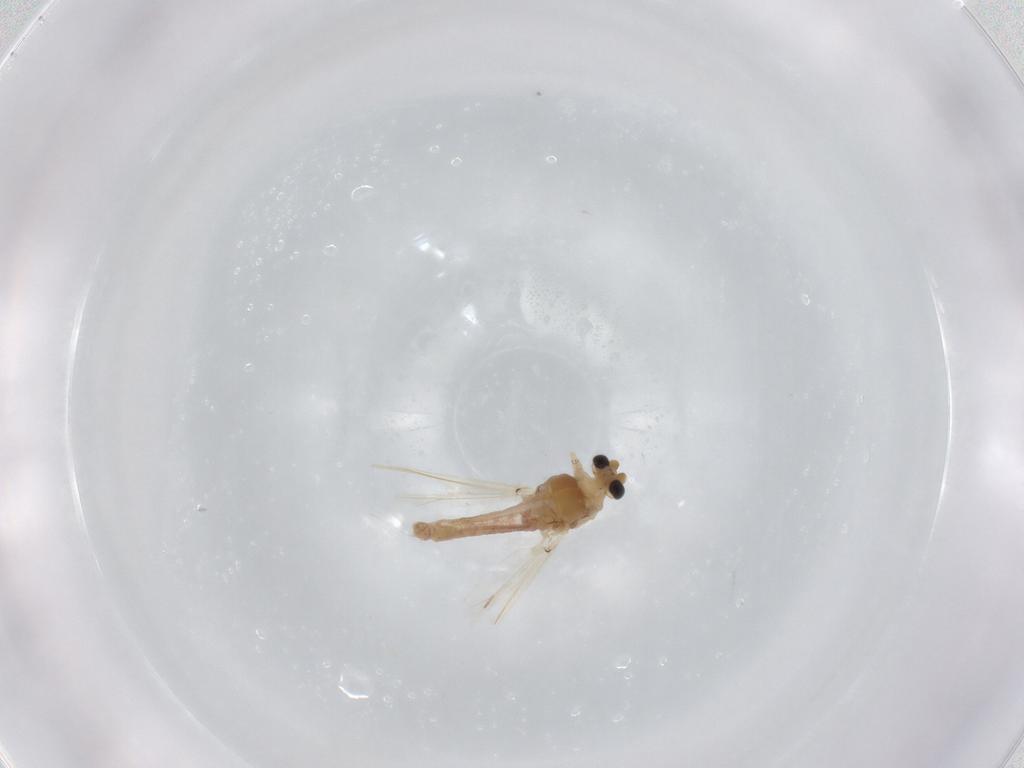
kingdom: Animalia
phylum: Arthropoda
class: Insecta
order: Diptera
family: Chironomidae
